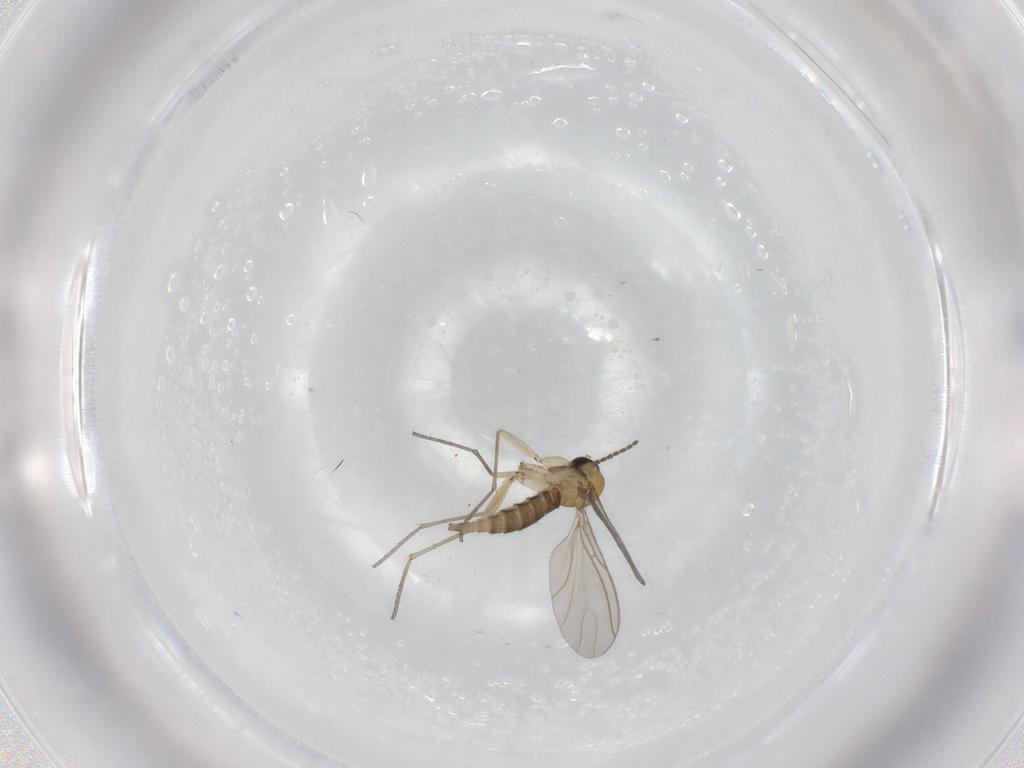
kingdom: Animalia
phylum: Arthropoda
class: Insecta
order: Diptera
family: Sciaridae
